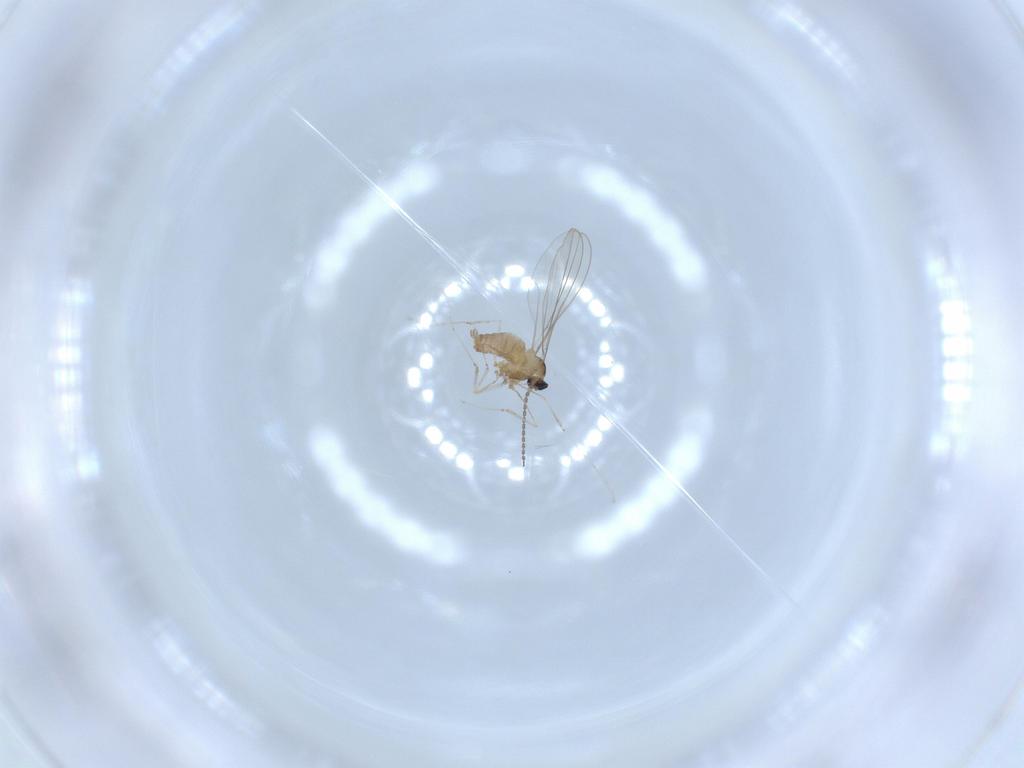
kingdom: Animalia
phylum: Arthropoda
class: Insecta
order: Diptera
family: Cecidomyiidae
